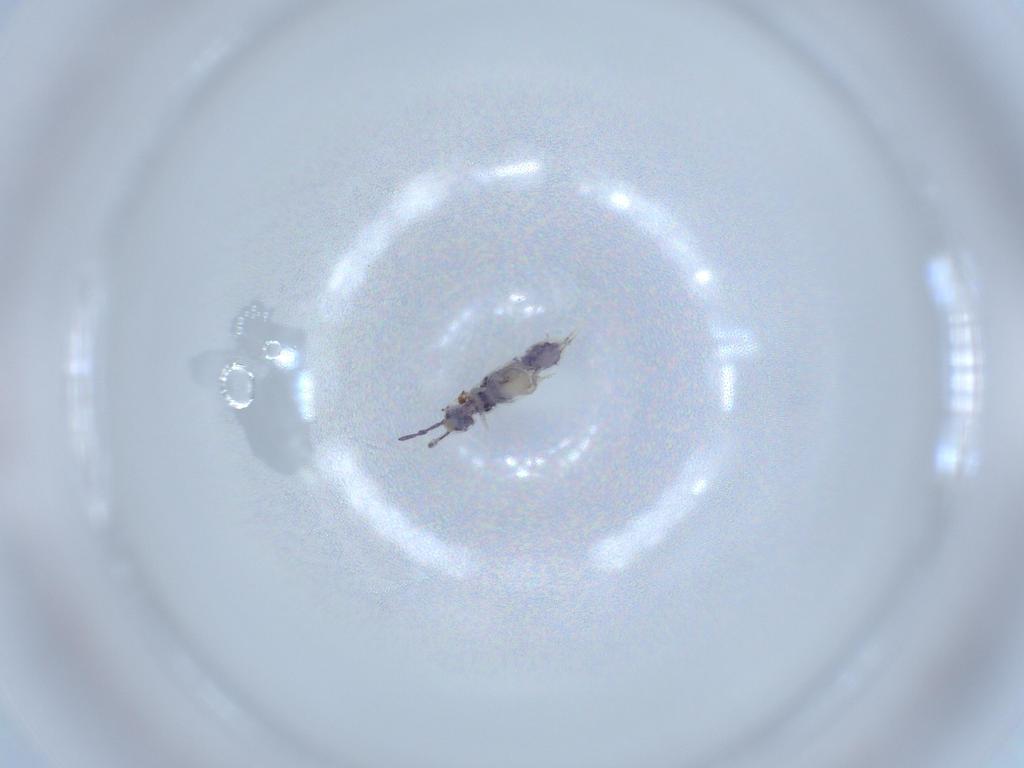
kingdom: Animalia
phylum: Arthropoda
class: Collembola
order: Entomobryomorpha
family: Isotomidae
